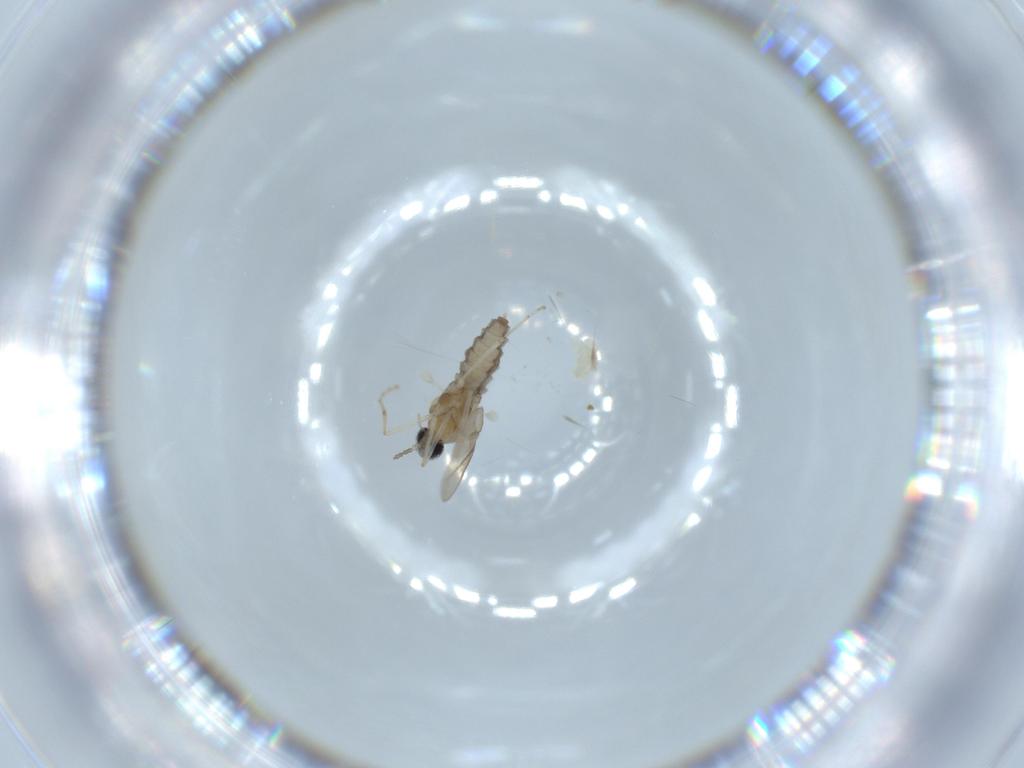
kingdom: Animalia
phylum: Arthropoda
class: Insecta
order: Diptera
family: Cecidomyiidae
